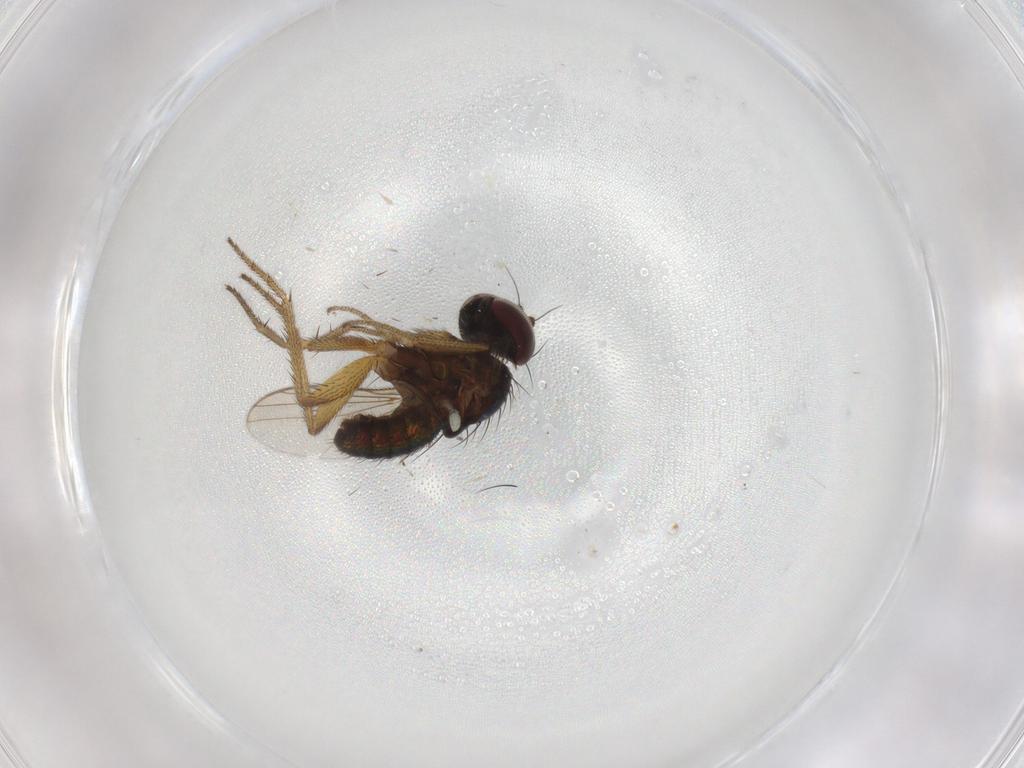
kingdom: Animalia
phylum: Arthropoda
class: Insecta
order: Diptera
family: Dolichopodidae
